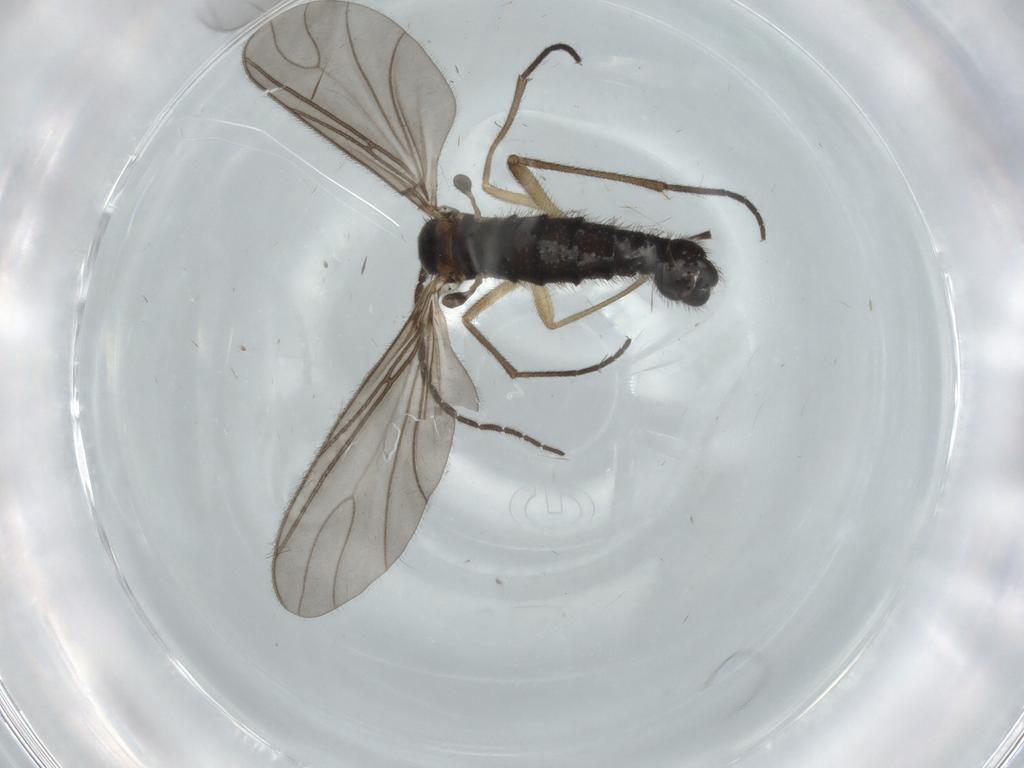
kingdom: Animalia
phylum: Arthropoda
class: Insecta
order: Diptera
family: Sciaridae
